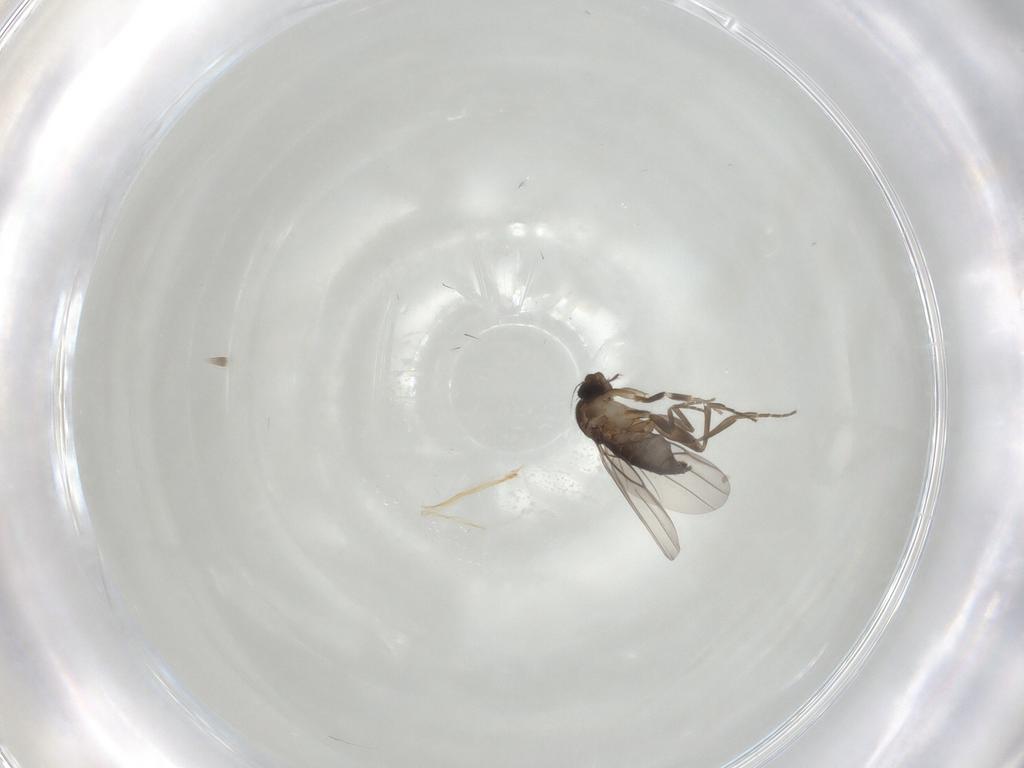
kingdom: Animalia
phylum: Arthropoda
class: Insecta
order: Diptera
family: Phoridae
